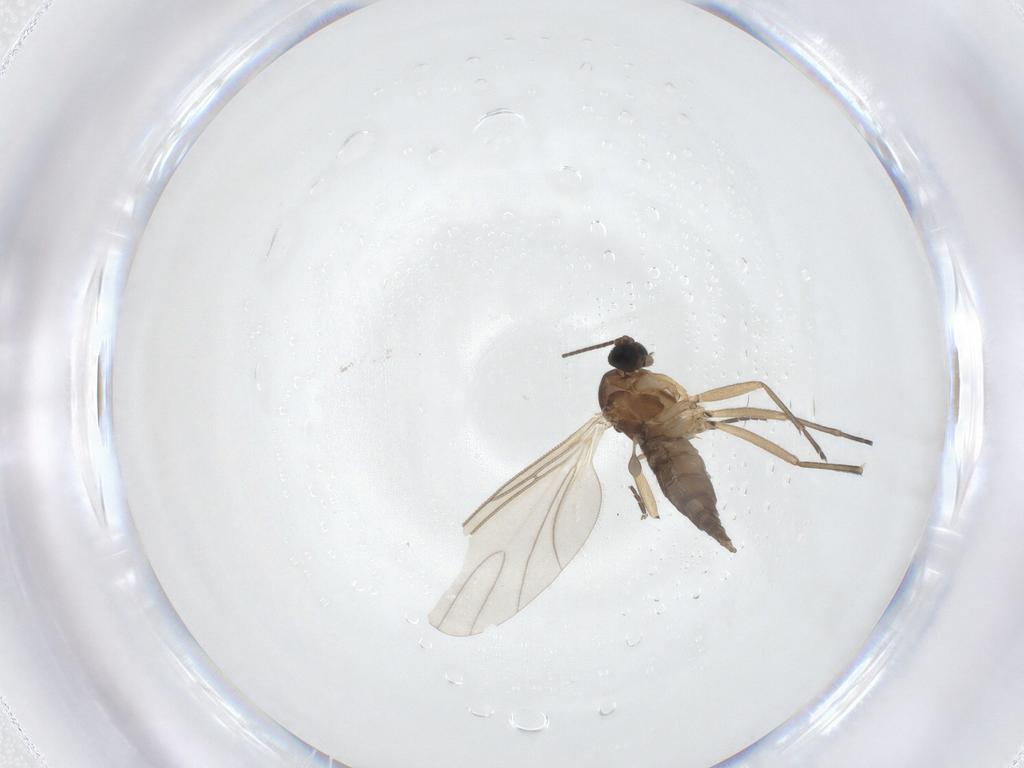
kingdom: Animalia
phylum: Arthropoda
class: Insecta
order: Diptera
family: Sciaridae
